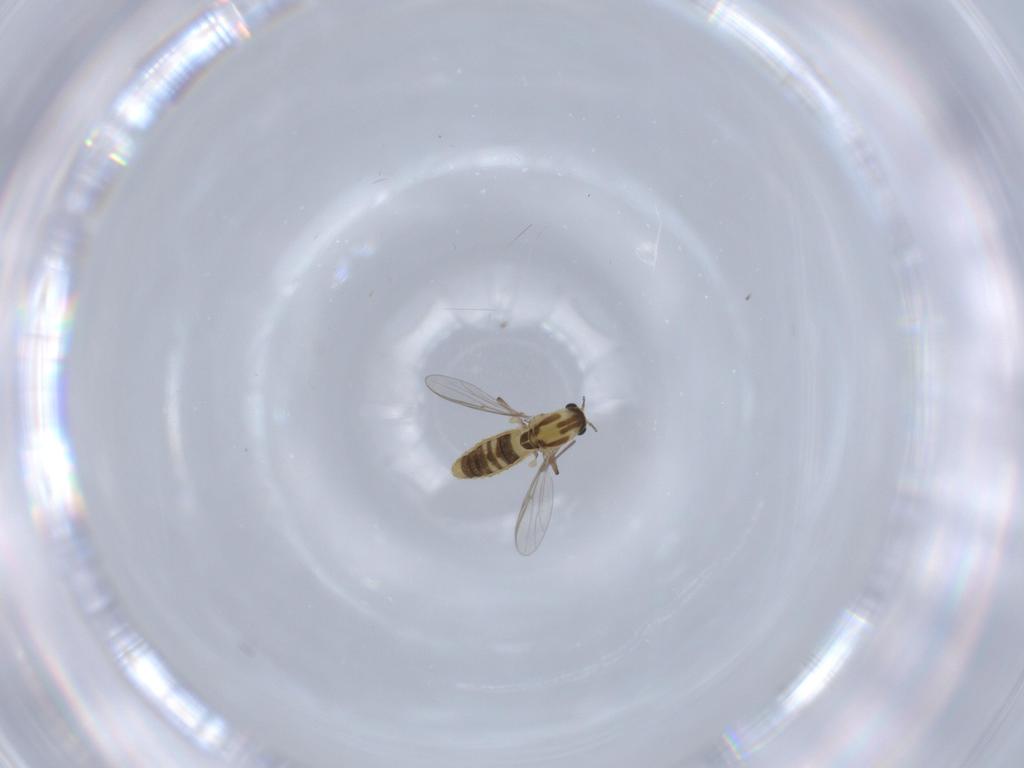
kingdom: Animalia
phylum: Arthropoda
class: Insecta
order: Diptera
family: Chironomidae
